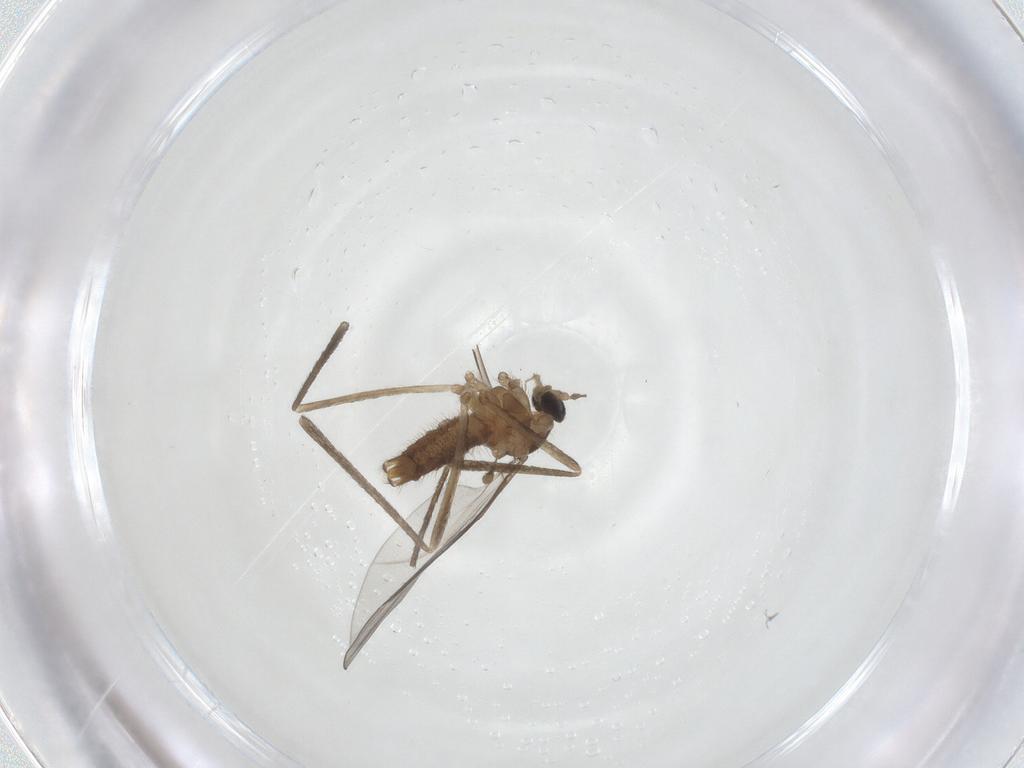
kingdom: Animalia
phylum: Arthropoda
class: Insecta
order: Diptera
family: Cecidomyiidae
